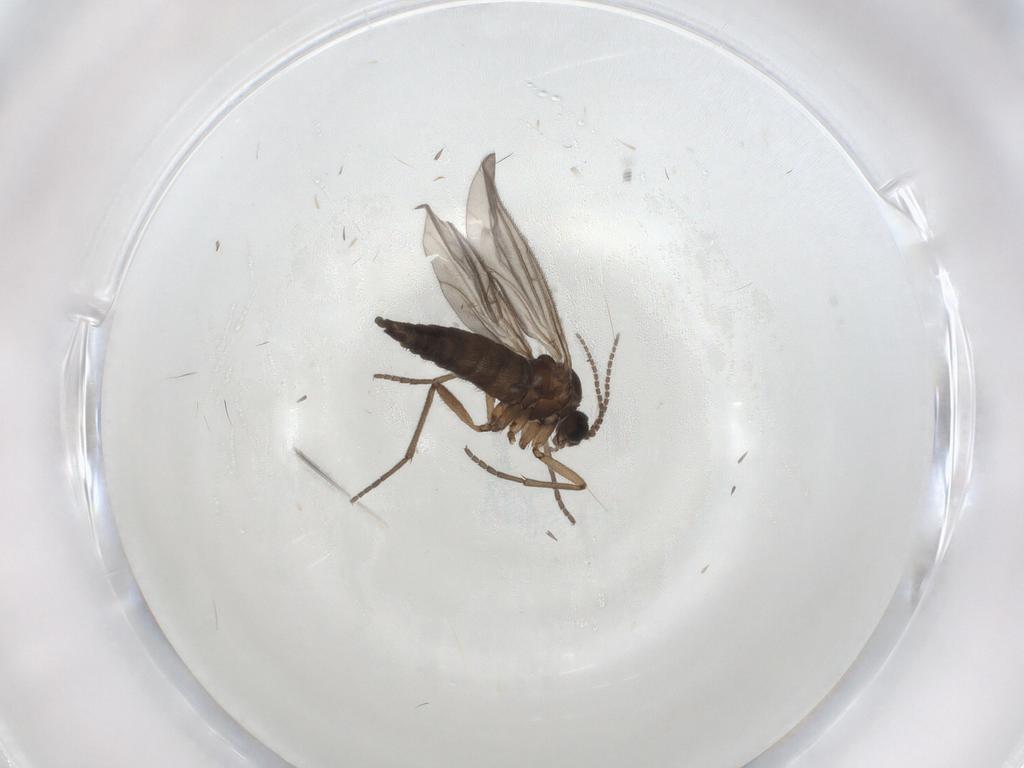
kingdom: Animalia
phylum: Arthropoda
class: Insecta
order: Diptera
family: Sciaridae
